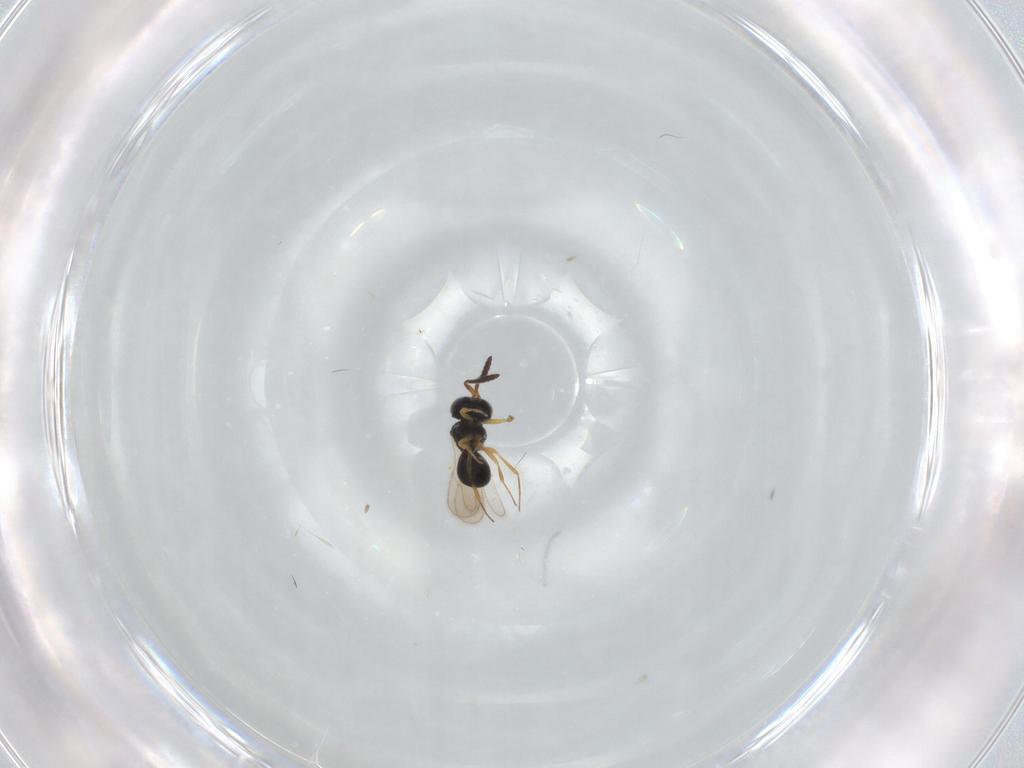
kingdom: Animalia
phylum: Arthropoda
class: Insecta
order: Hymenoptera
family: Scelionidae
